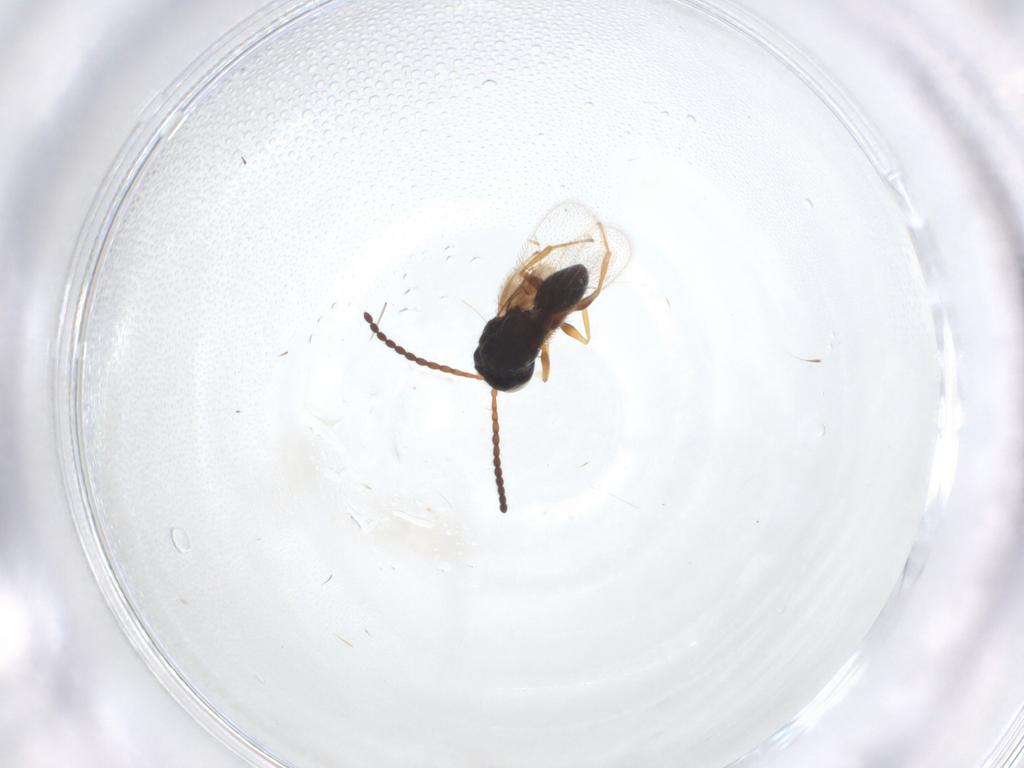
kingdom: Animalia
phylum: Arthropoda
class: Insecta
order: Hymenoptera
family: Figitidae
